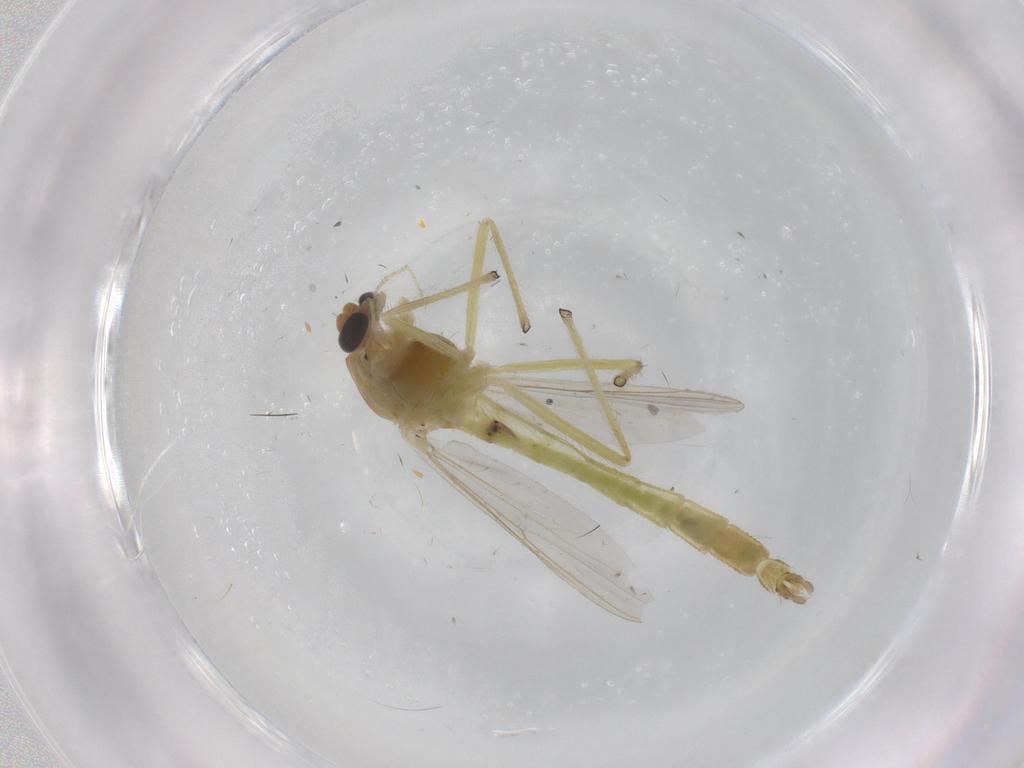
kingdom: Animalia
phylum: Arthropoda
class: Insecta
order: Diptera
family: Chironomidae
